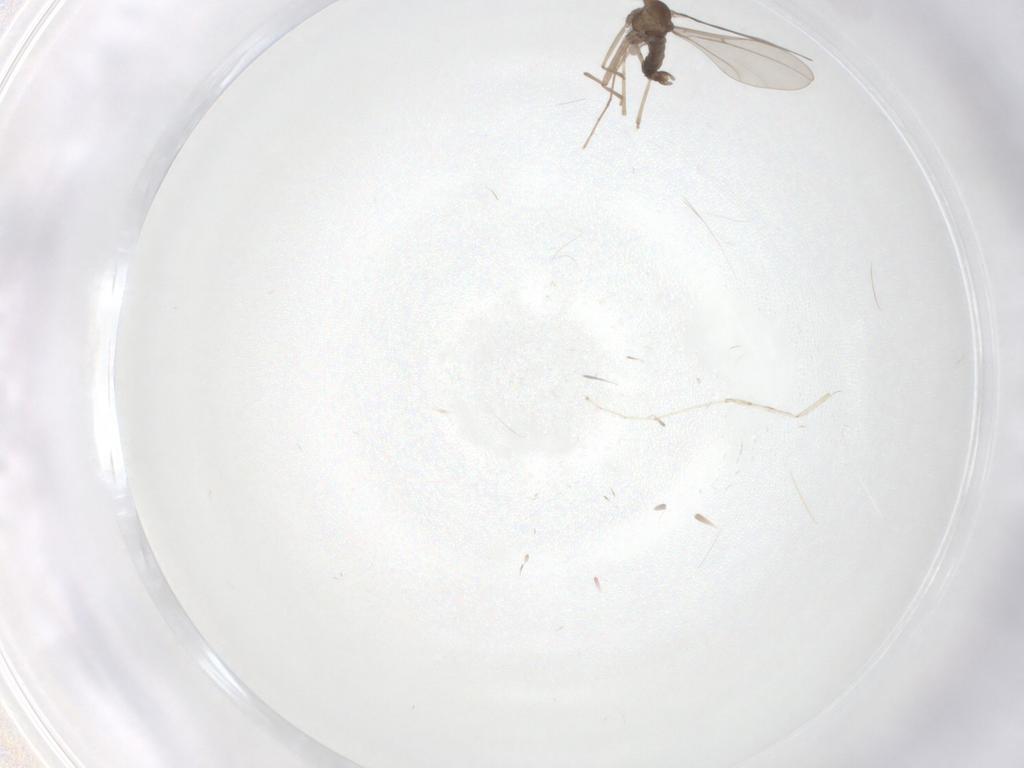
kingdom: Animalia
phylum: Arthropoda
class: Insecta
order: Diptera
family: Cecidomyiidae
